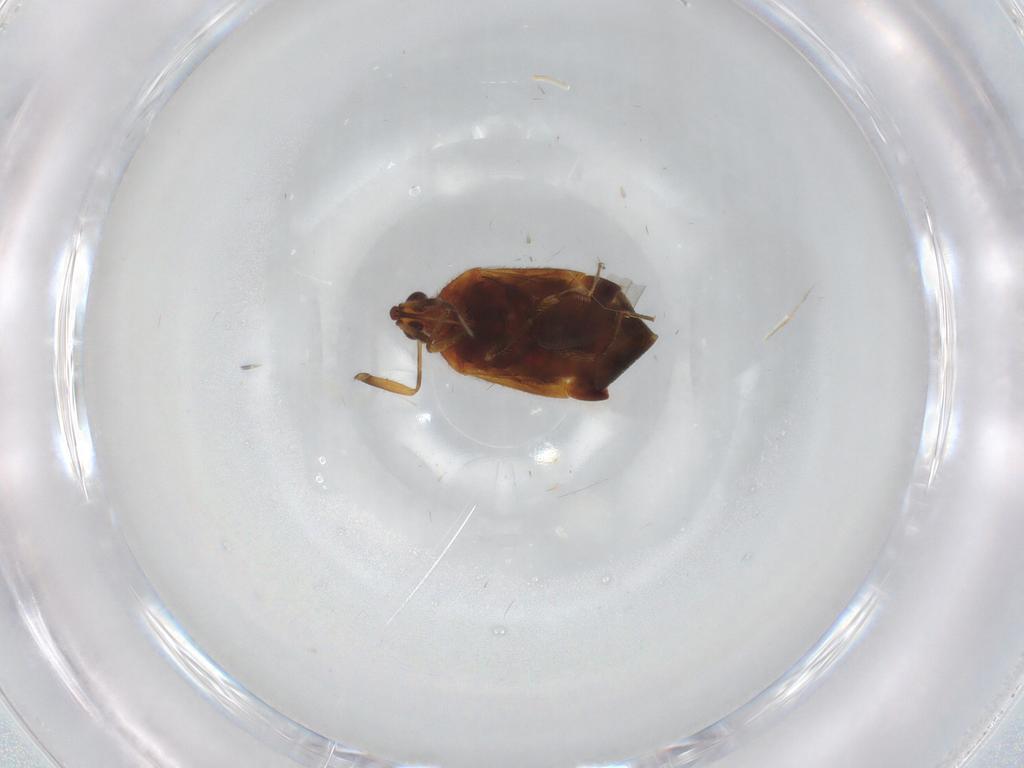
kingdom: Animalia
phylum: Arthropoda
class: Insecta
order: Hemiptera
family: Anthocoridae
